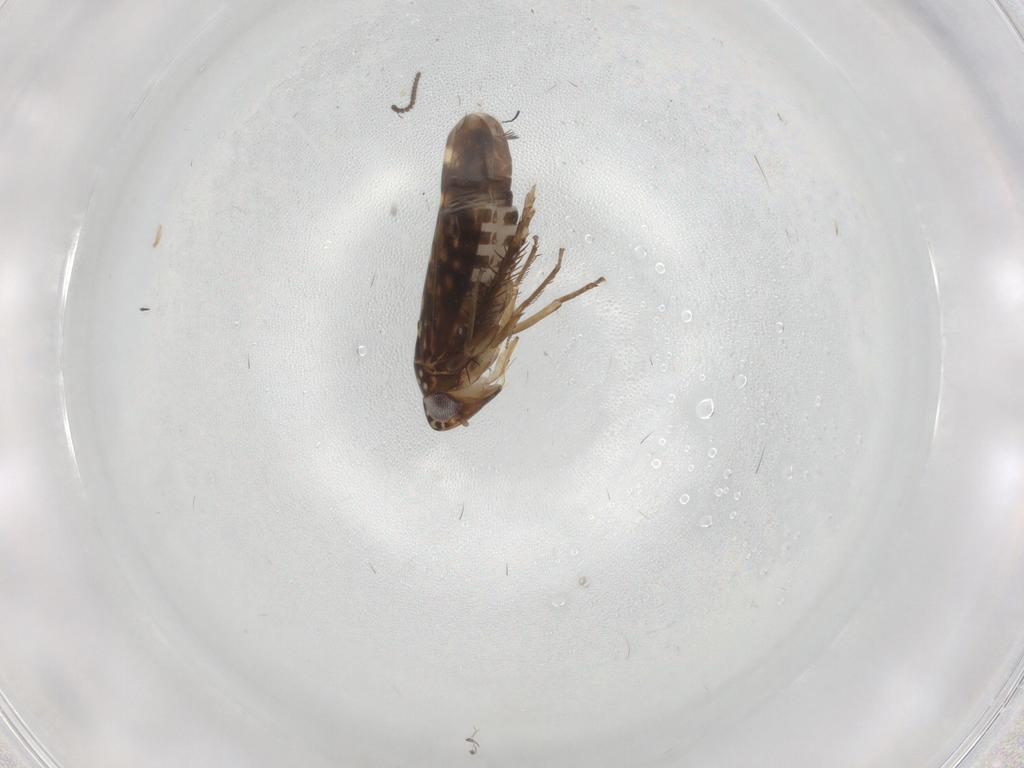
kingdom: Animalia
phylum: Arthropoda
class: Insecta
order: Hemiptera
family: Cicadellidae
